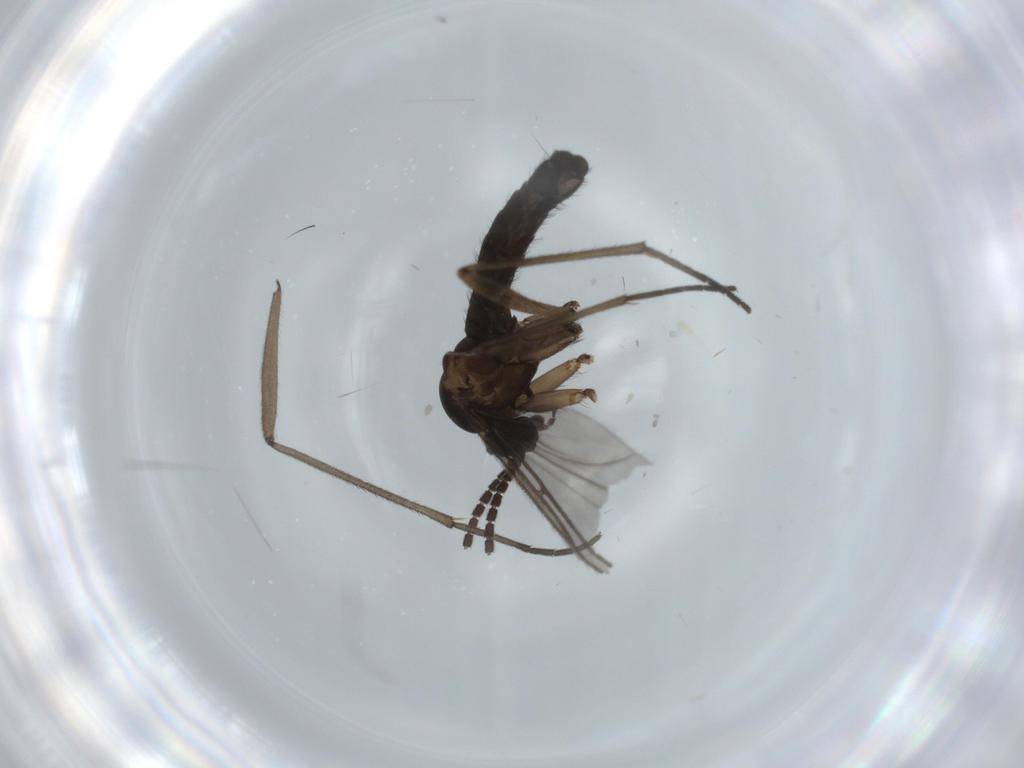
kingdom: Animalia
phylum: Arthropoda
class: Insecta
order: Diptera
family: Sciaridae
